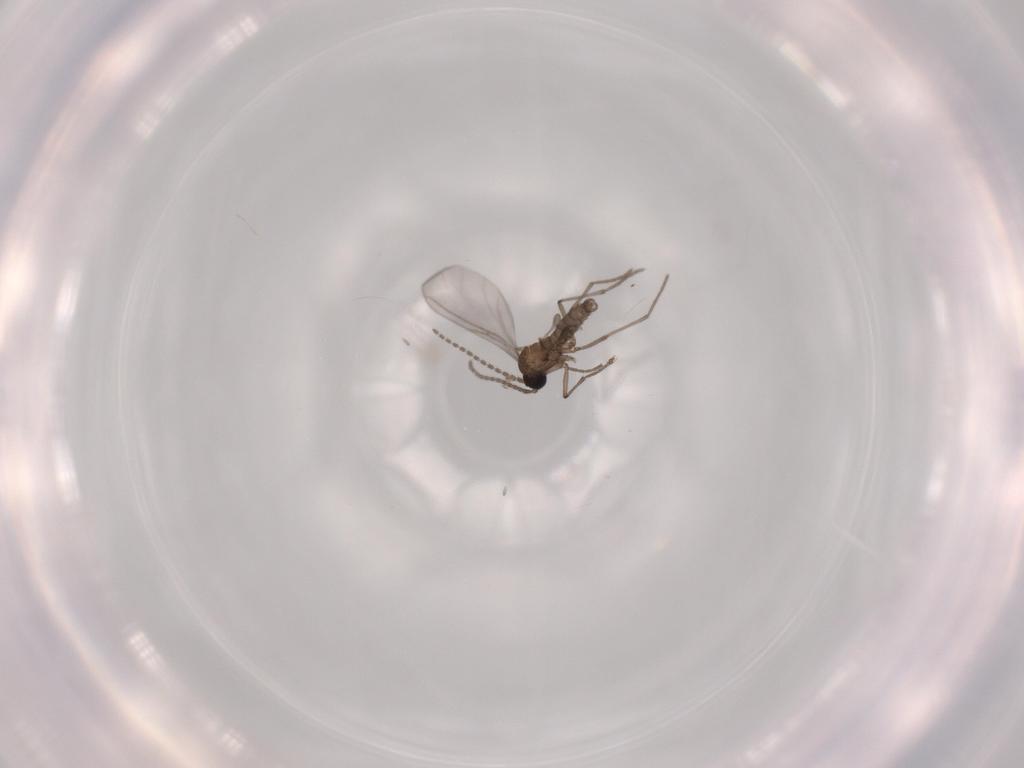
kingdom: Animalia
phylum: Arthropoda
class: Insecta
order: Diptera
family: Sciaridae
